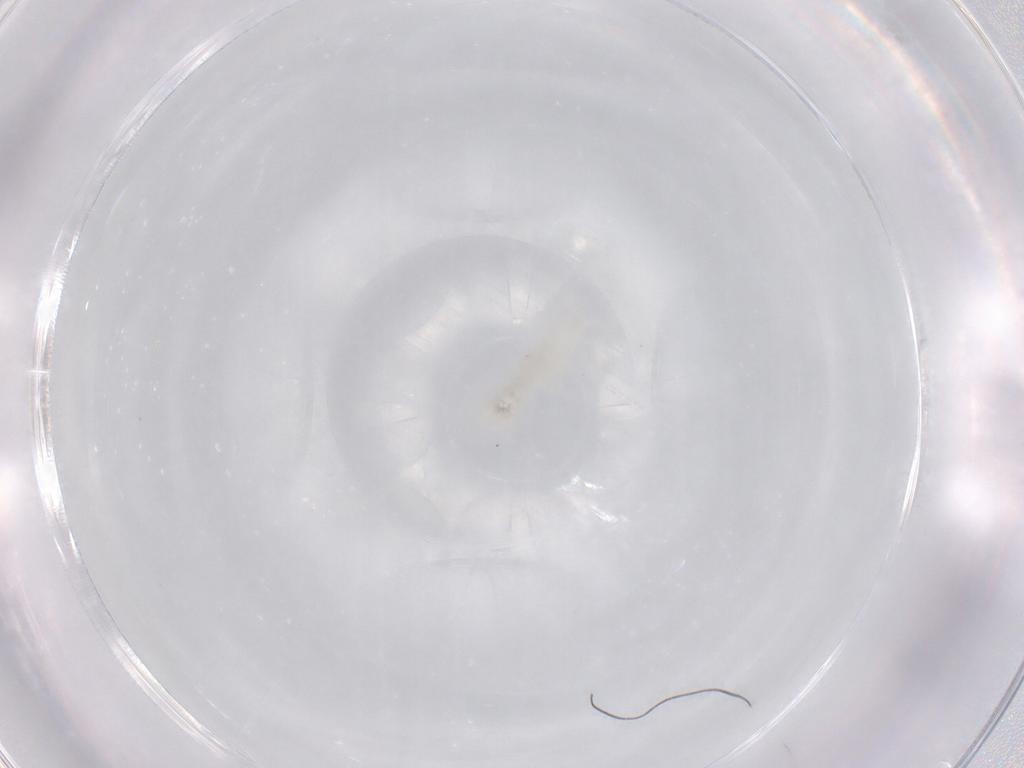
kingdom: Animalia
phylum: Arthropoda
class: Collembola
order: Poduromorpha
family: Onychiuridae
